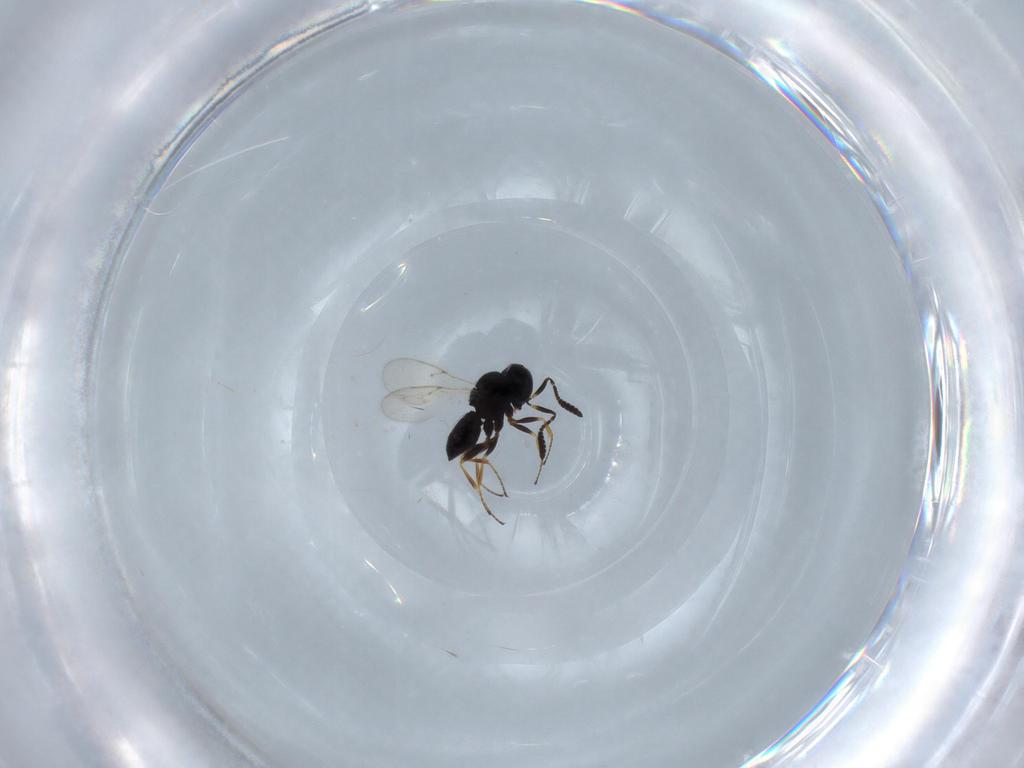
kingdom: Animalia
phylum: Arthropoda
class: Insecta
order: Hymenoptera
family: Scelionidae
